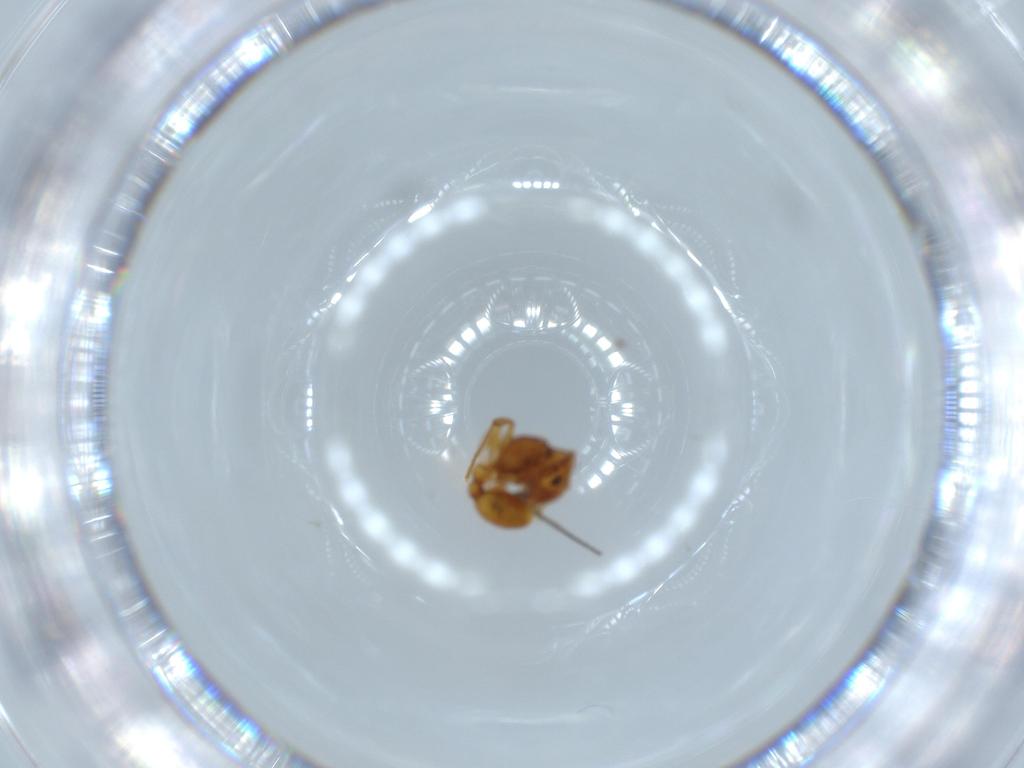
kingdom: Animalia
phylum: Arthropoda
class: Insecta
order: Hymenoptera
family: Formicidae
